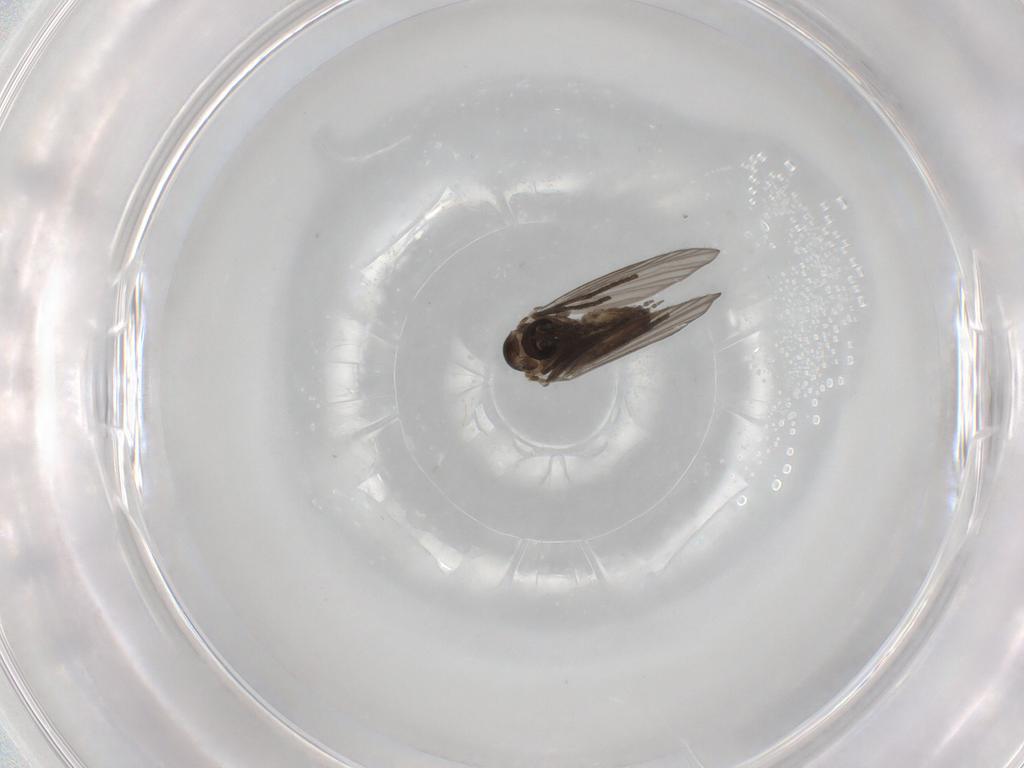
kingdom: Animalia
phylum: Arthropoda
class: Insecta
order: Diptera
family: Psychodidae
